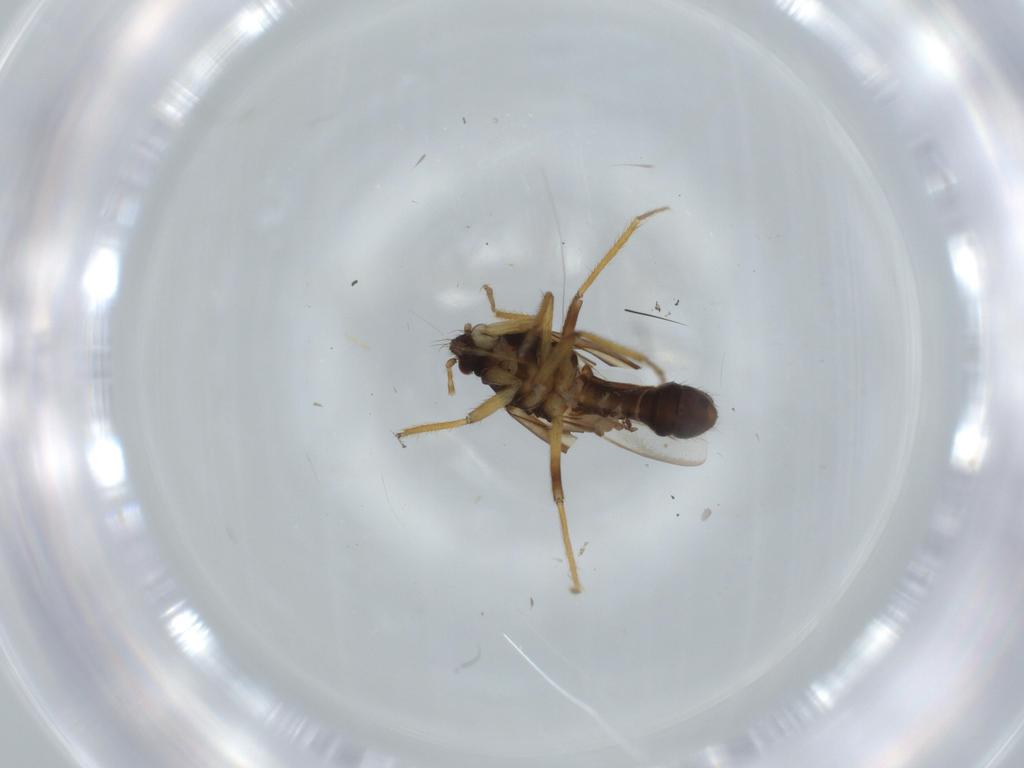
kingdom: Animalia
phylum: Arthropoda
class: Insecta
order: Hemiptera
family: Ceratocombidae
